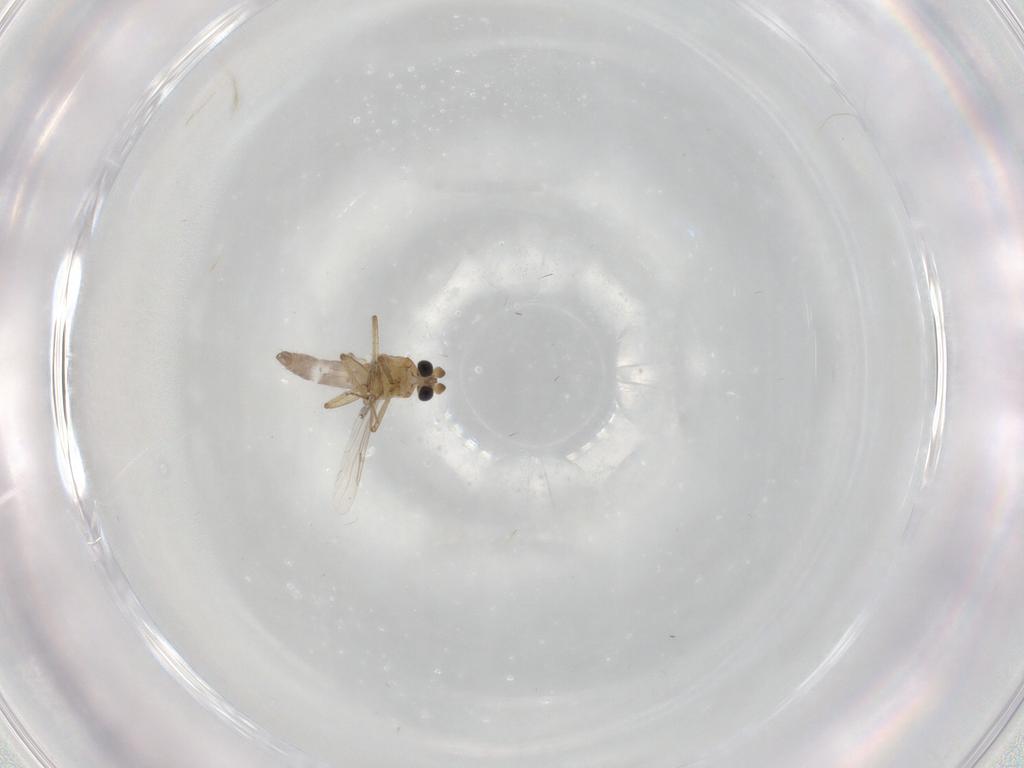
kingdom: Animalia
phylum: Arthropoda
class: Insecta
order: Diptera
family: Ceratopogonidae
